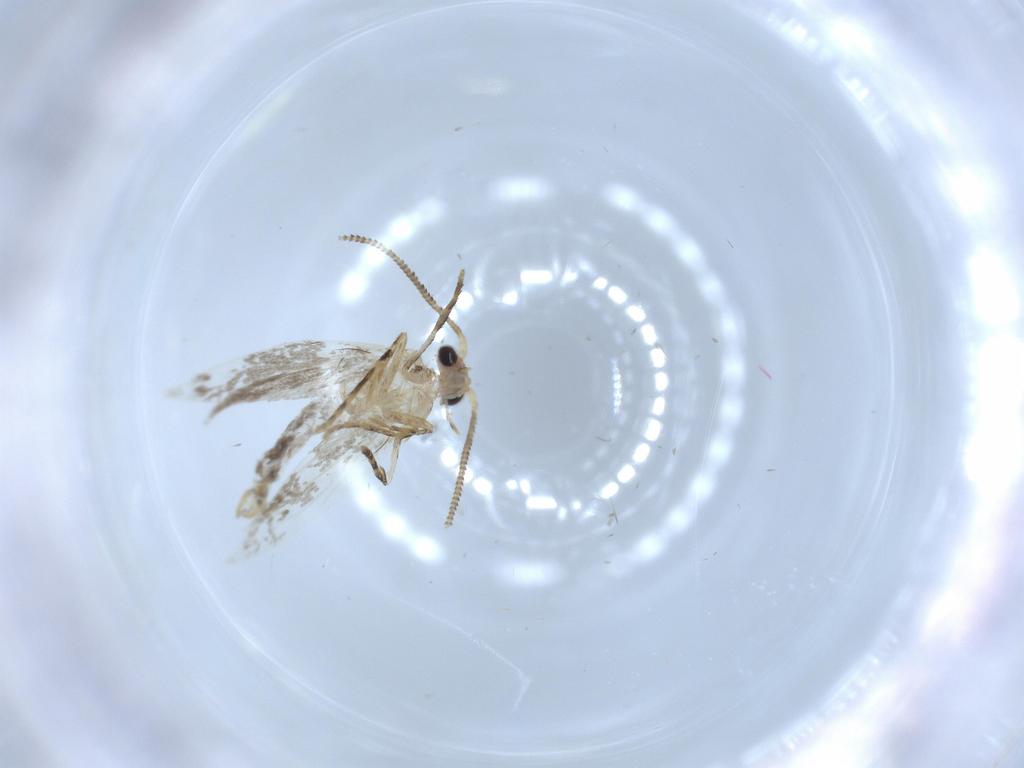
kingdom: Animalia
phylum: Arthropoda
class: Insecta
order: Lepidoptera
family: Tineidae
